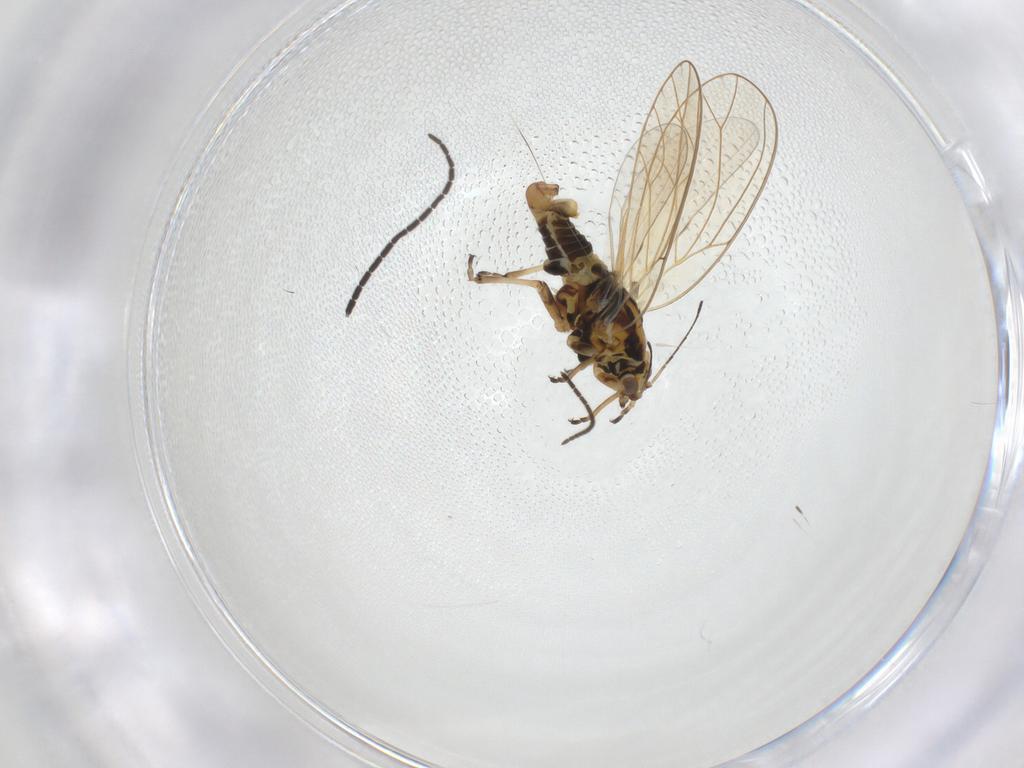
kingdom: Animalia
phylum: Arthropoda
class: Insecta
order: Hemiptera
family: Triozidae
